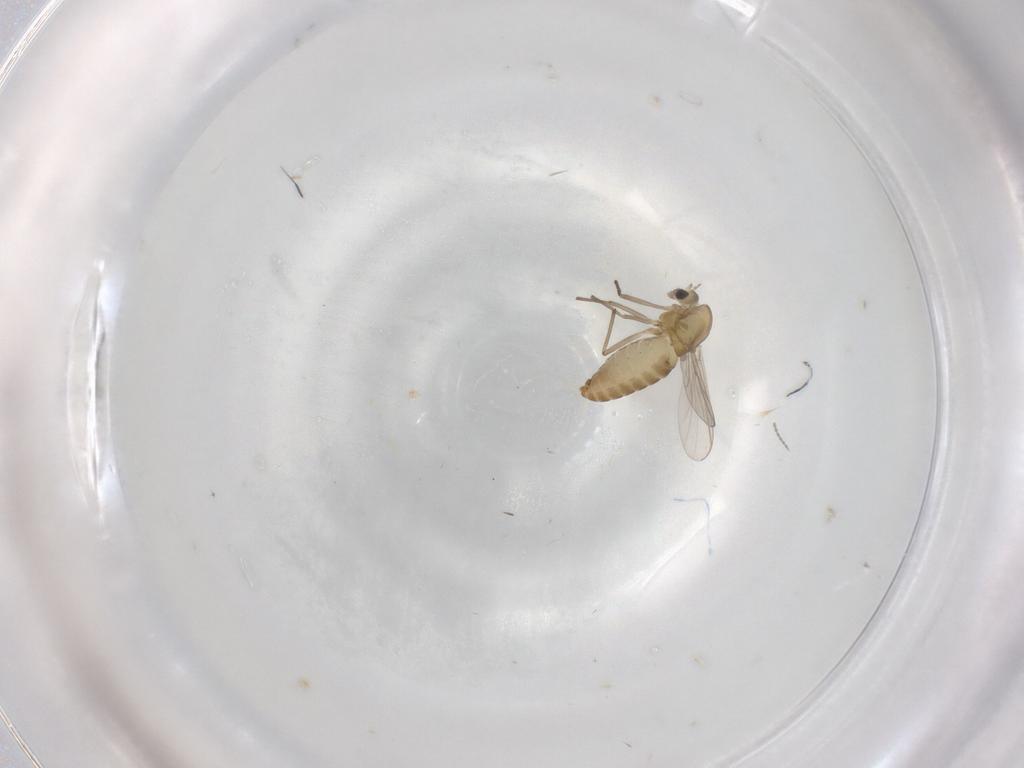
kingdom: Animalia
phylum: Arthropoda
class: Insecta
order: Diptera
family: Chironomidae
